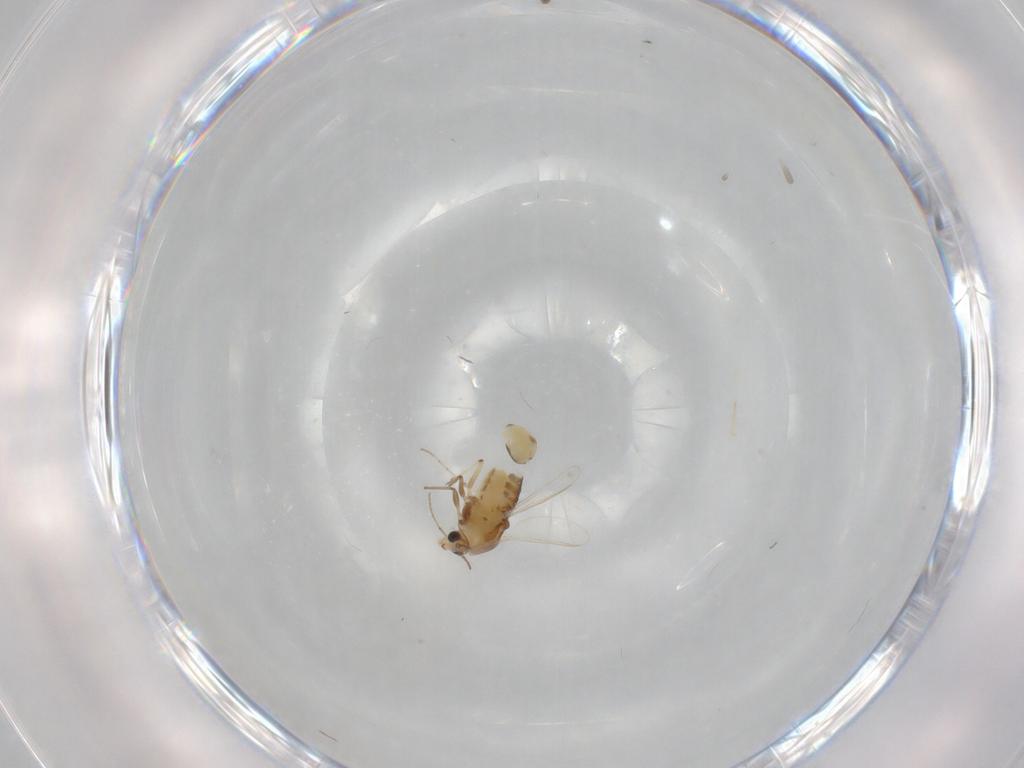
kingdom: Animalia
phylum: Arthropoda
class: Insecta
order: Diptera
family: Chironomidae
